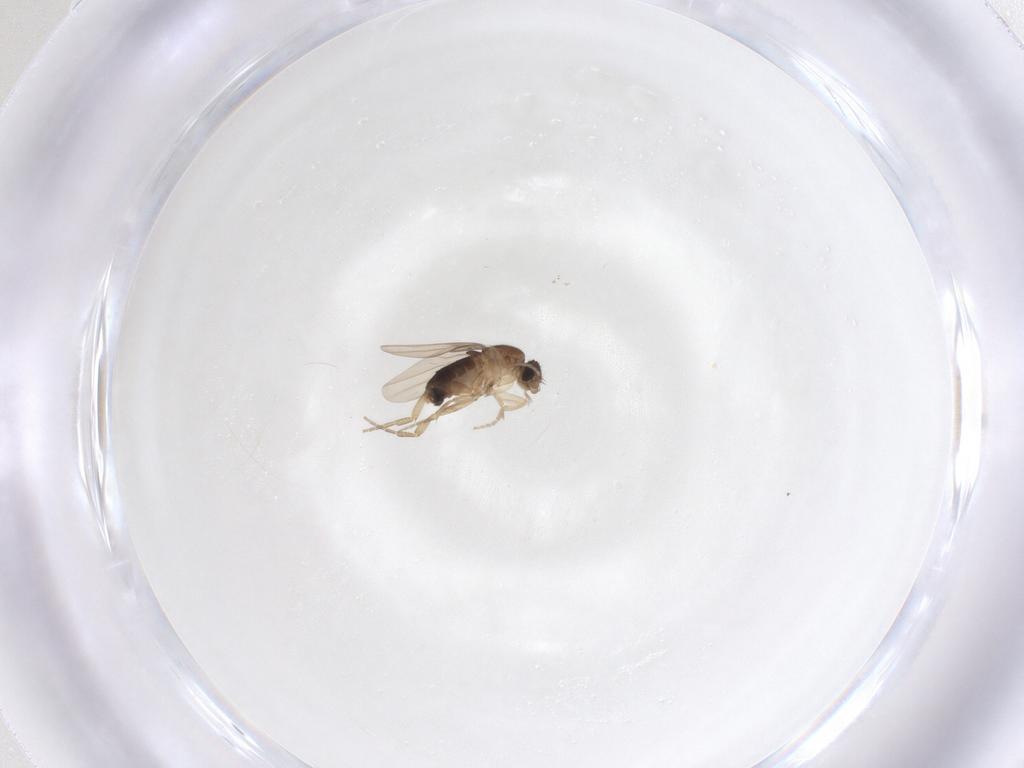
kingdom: Animalia
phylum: Arthropoda
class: Insecta
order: Diptera
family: Phoridae
